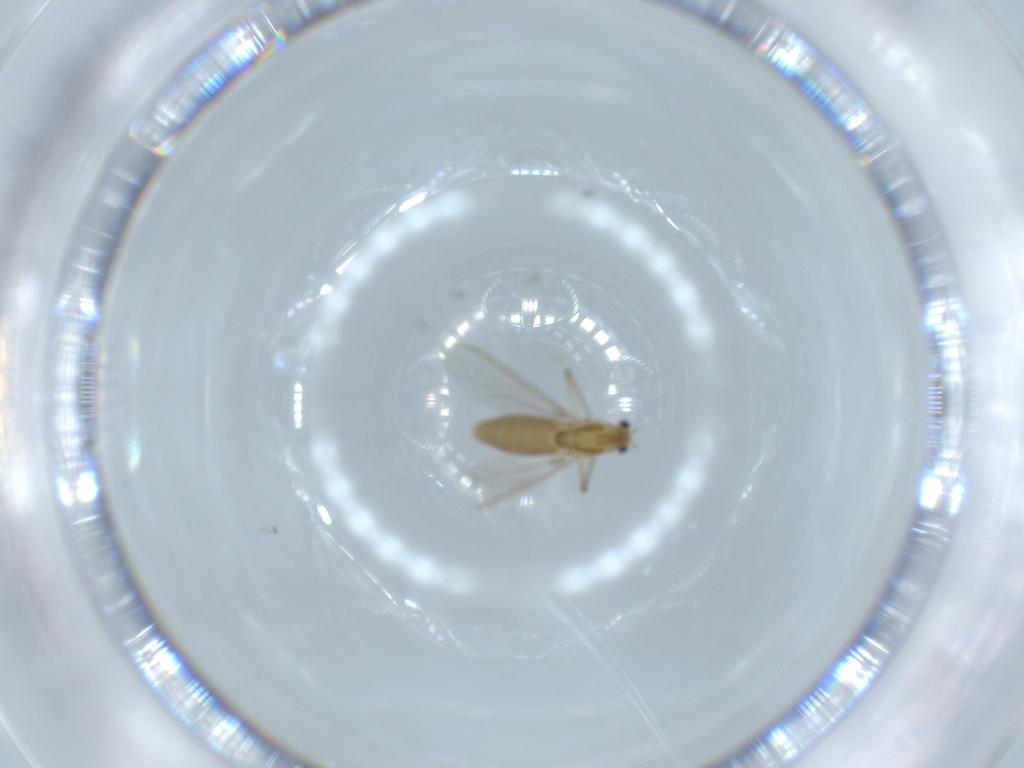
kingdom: Animalia
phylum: Arthropoda
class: Insecta
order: Diptera
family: Chironomidae
